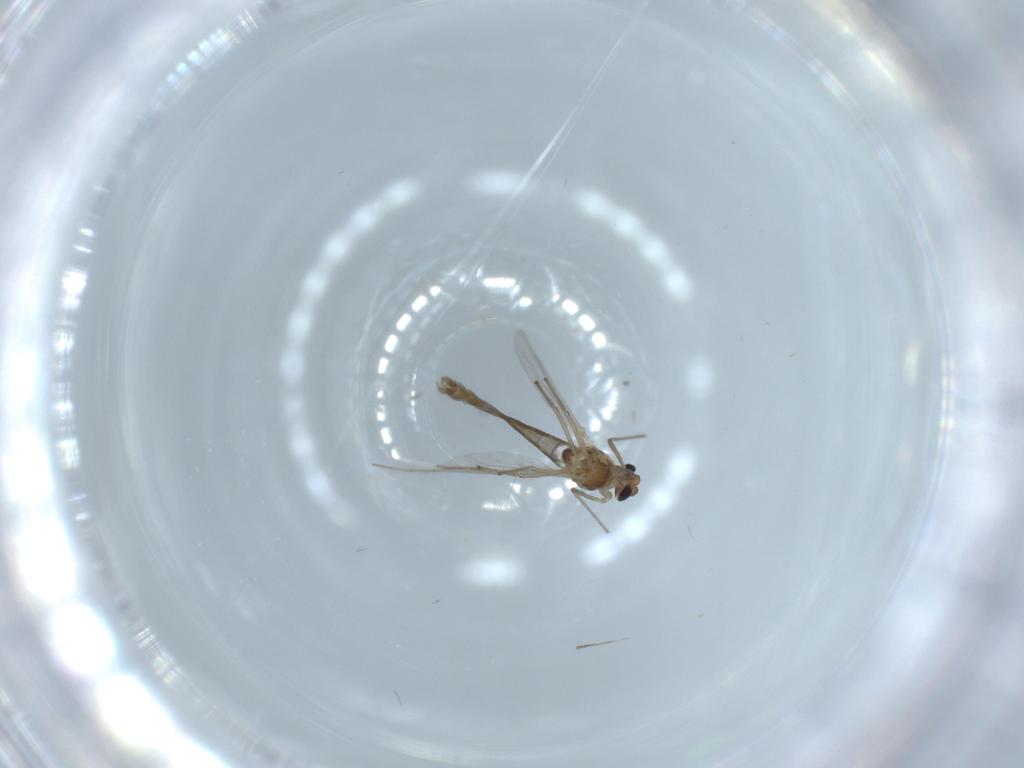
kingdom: Animalia
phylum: Arthropoda
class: Insecta
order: Diptera
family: Chironomidae
